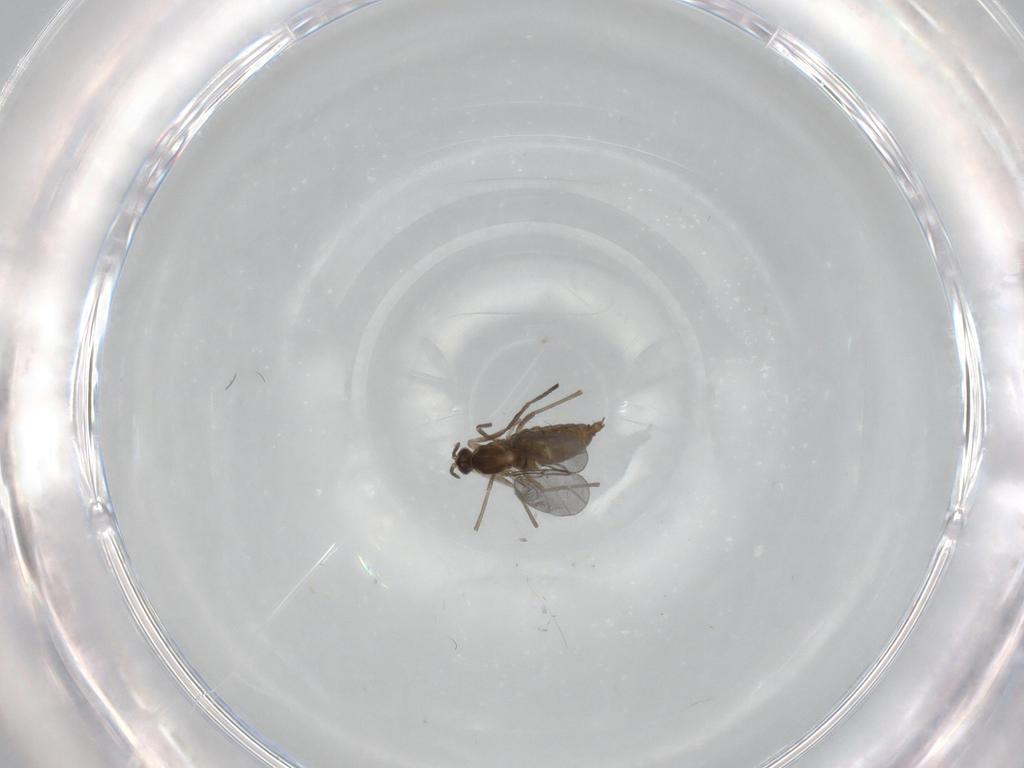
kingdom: Animalia
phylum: Arthropoda
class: Insecta
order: Diptera
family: Cecidomyiidae
